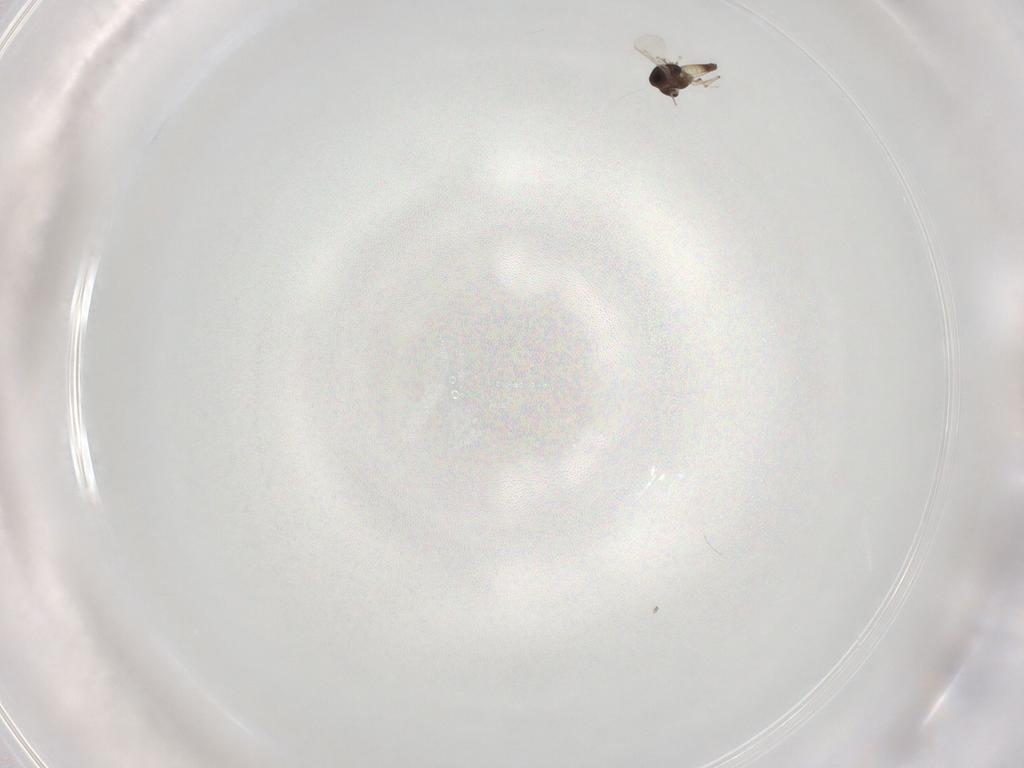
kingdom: Animalia
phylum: Arthropoda
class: Insecta
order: Diptera
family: Chironomidae
